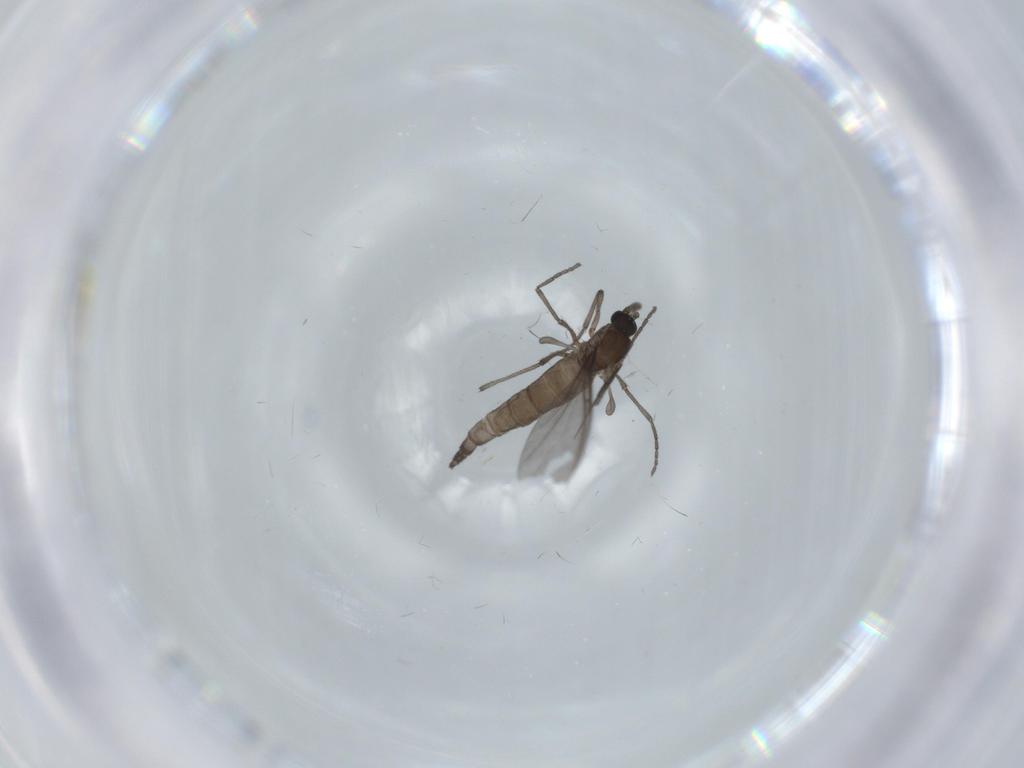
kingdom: Animalia
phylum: Arthropoda
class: Insecta
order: Diptera
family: Sciaridae
